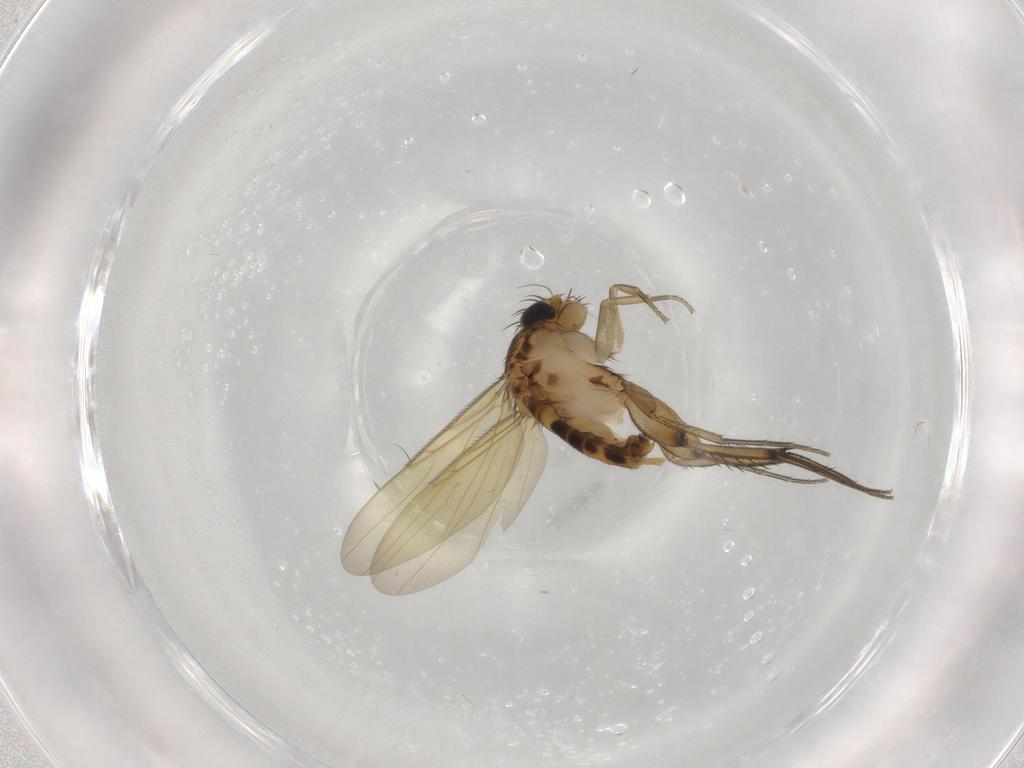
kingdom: Animalia
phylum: Arthropoda
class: Insecta
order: Diptera
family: Phoridae
